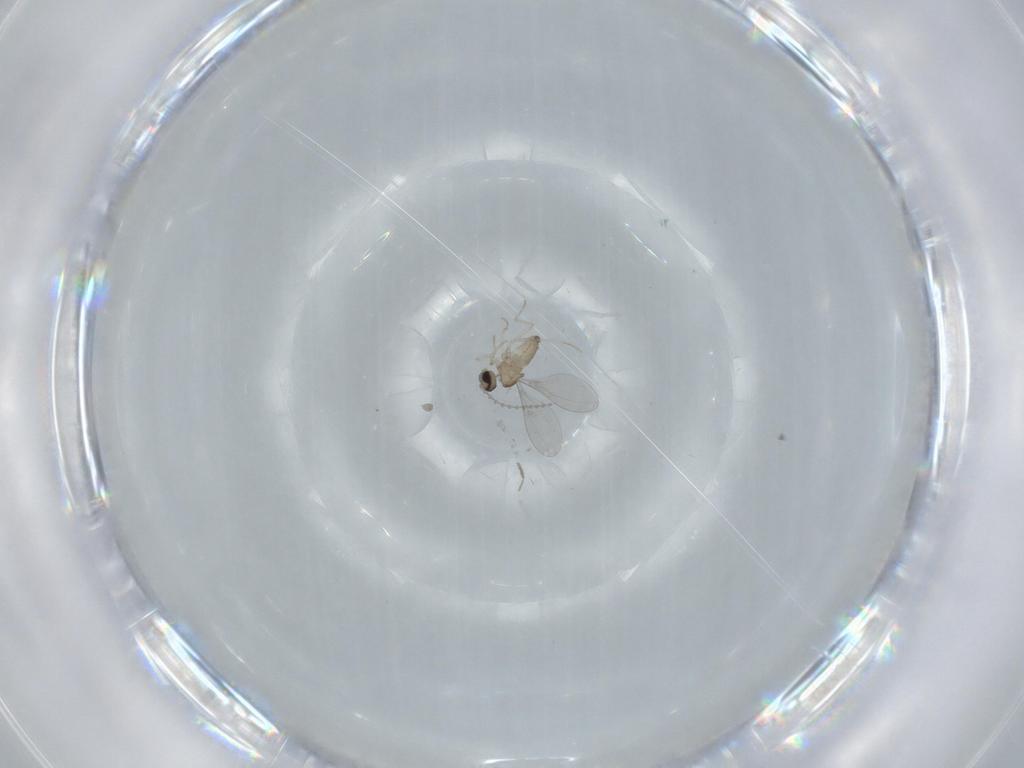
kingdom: Animalia
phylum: Arthropoda
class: Insecta
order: Diptera
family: Cecidomyiidae
